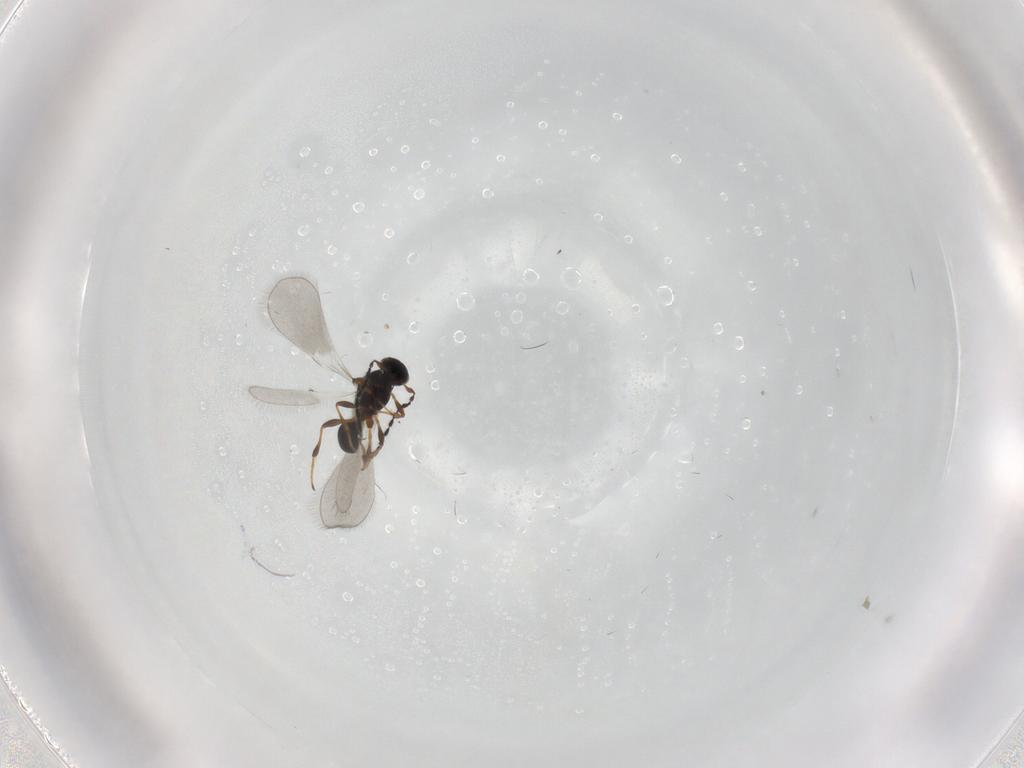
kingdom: Animalia
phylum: Arthropoda
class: Insecta
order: Hymenoptera
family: Platygastridae
